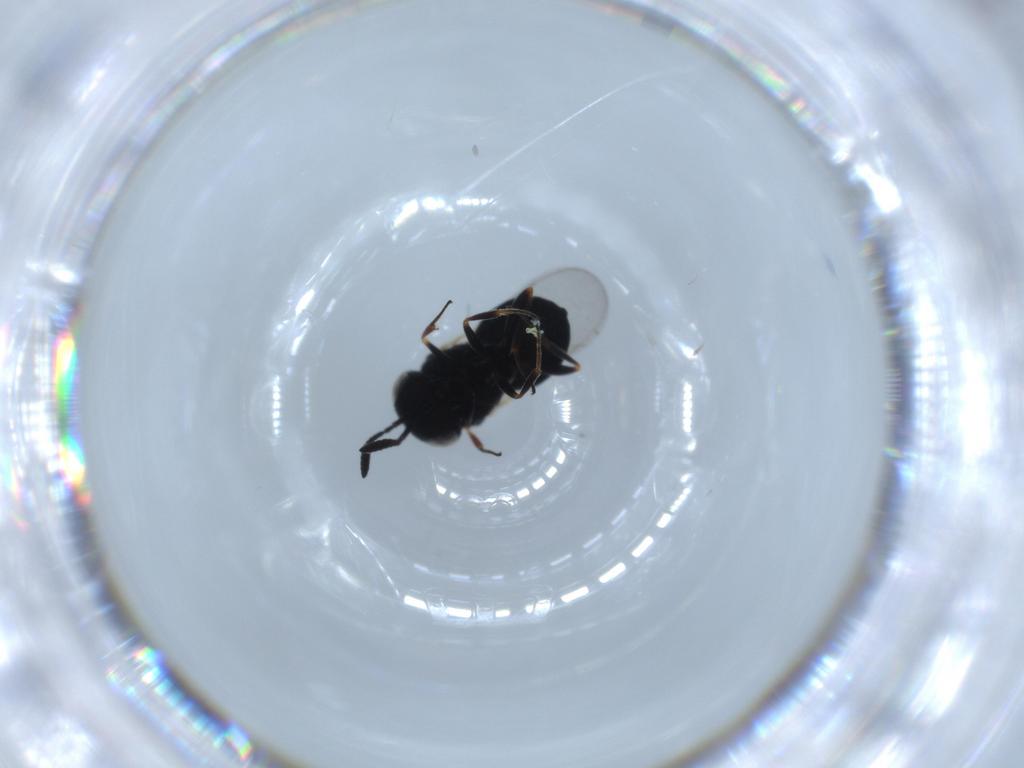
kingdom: Animalia
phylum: Arthropoda
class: Insecta
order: Hymenoptera
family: Scelionidae
